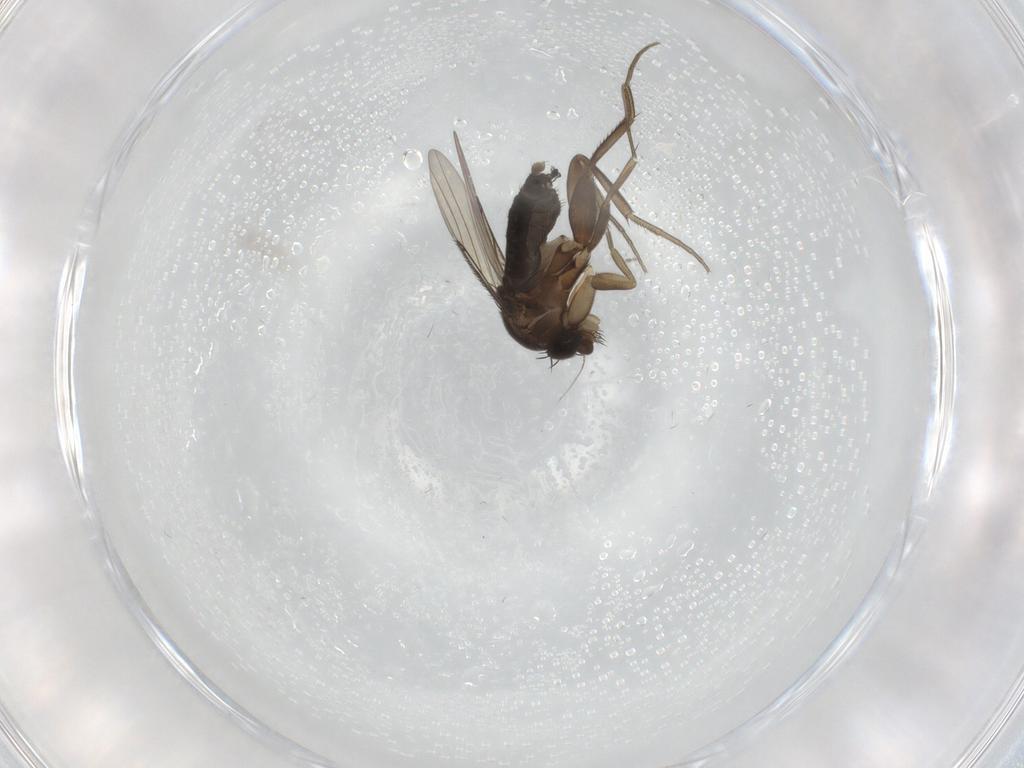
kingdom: Animalia
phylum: Arthropoda
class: Insecta
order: Diptera
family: Phoridae
